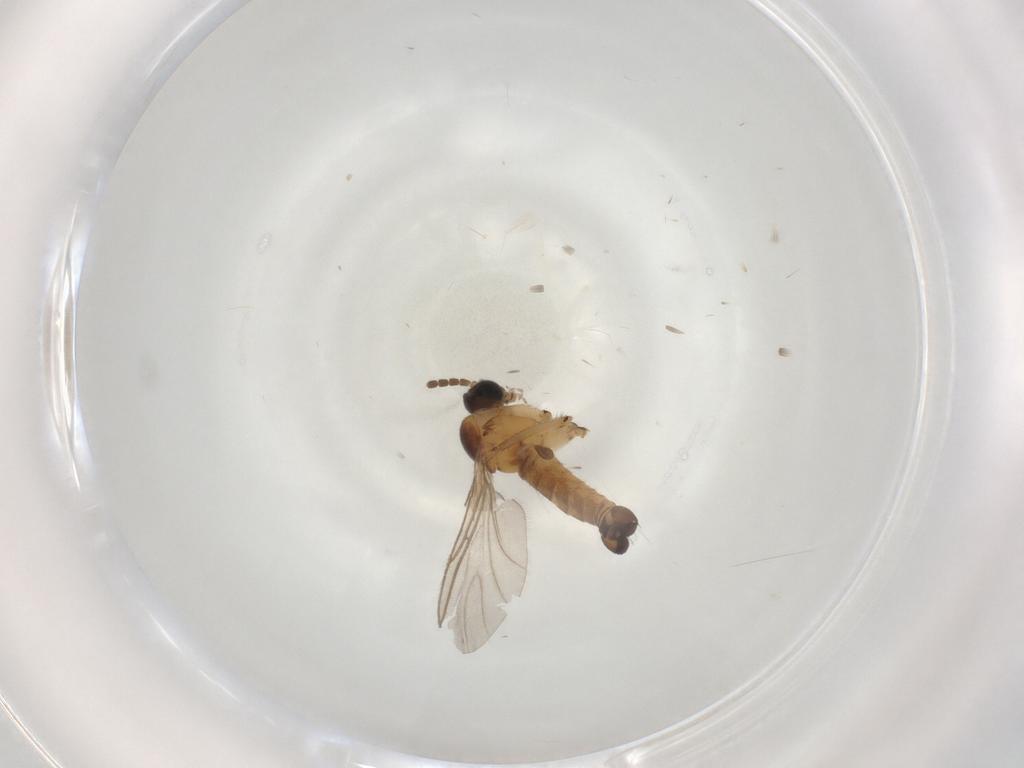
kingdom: Animalia
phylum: Arthropoda
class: Insecta
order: Diptera
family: Sciaridae
